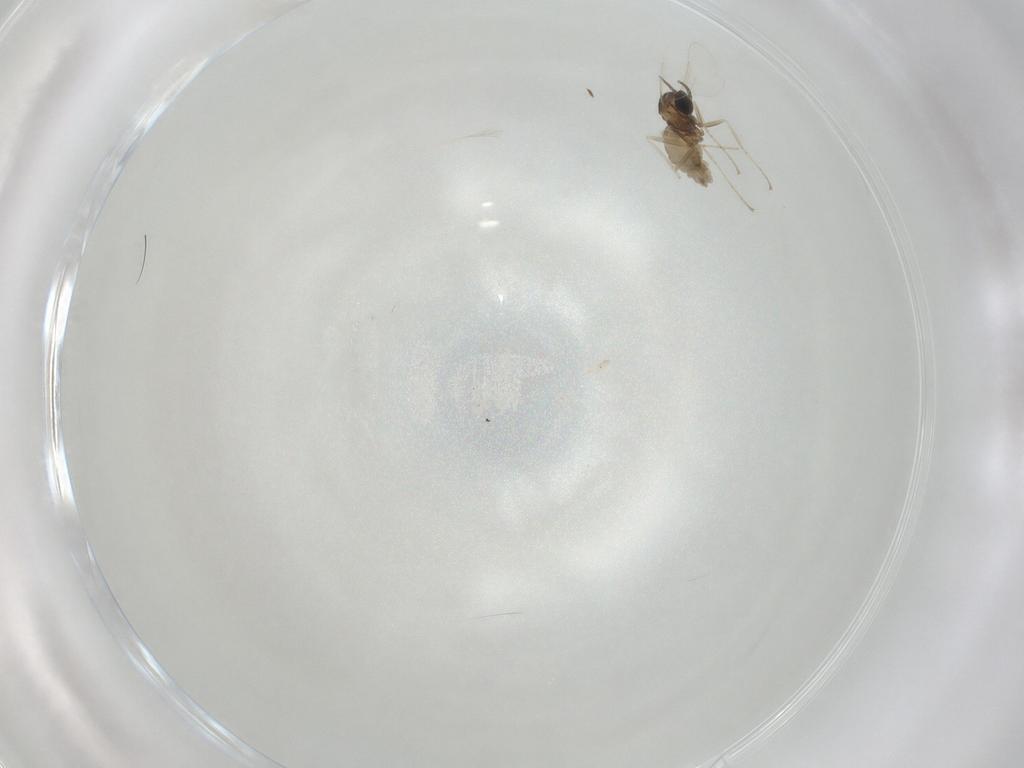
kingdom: Animalia
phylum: Arthropoda
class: Insecta
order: Diptera
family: Cecidomyiidae
